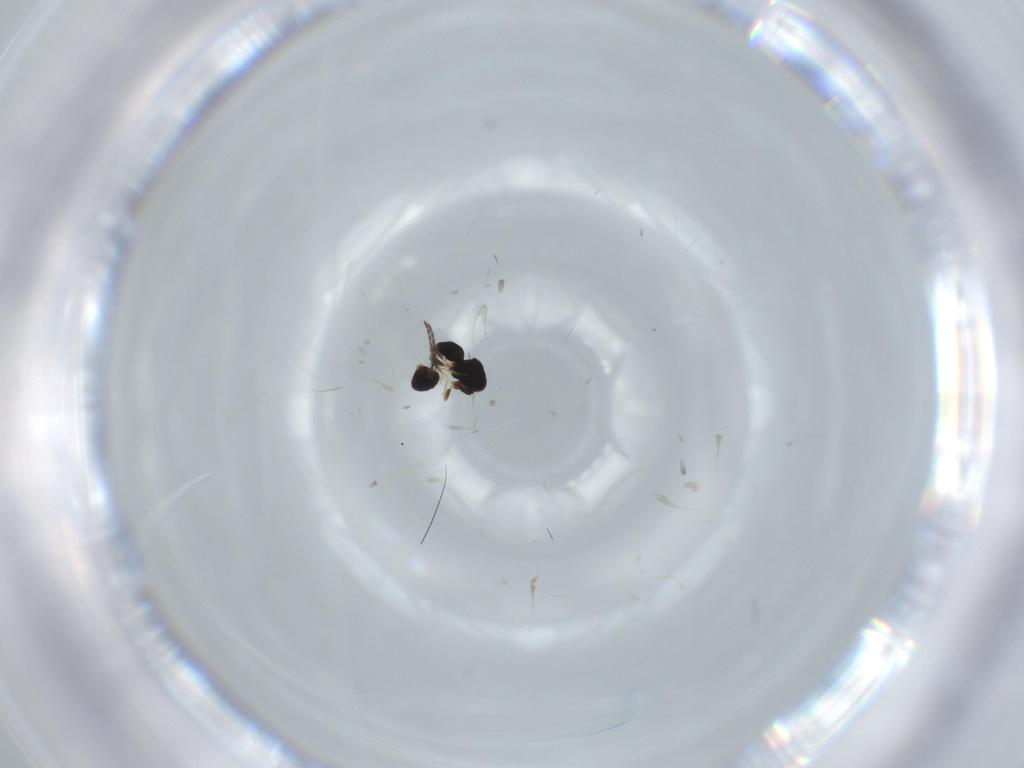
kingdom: Animalia
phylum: Arthropoda
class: Insecta
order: Hymenoptera
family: Ceraphronidae
